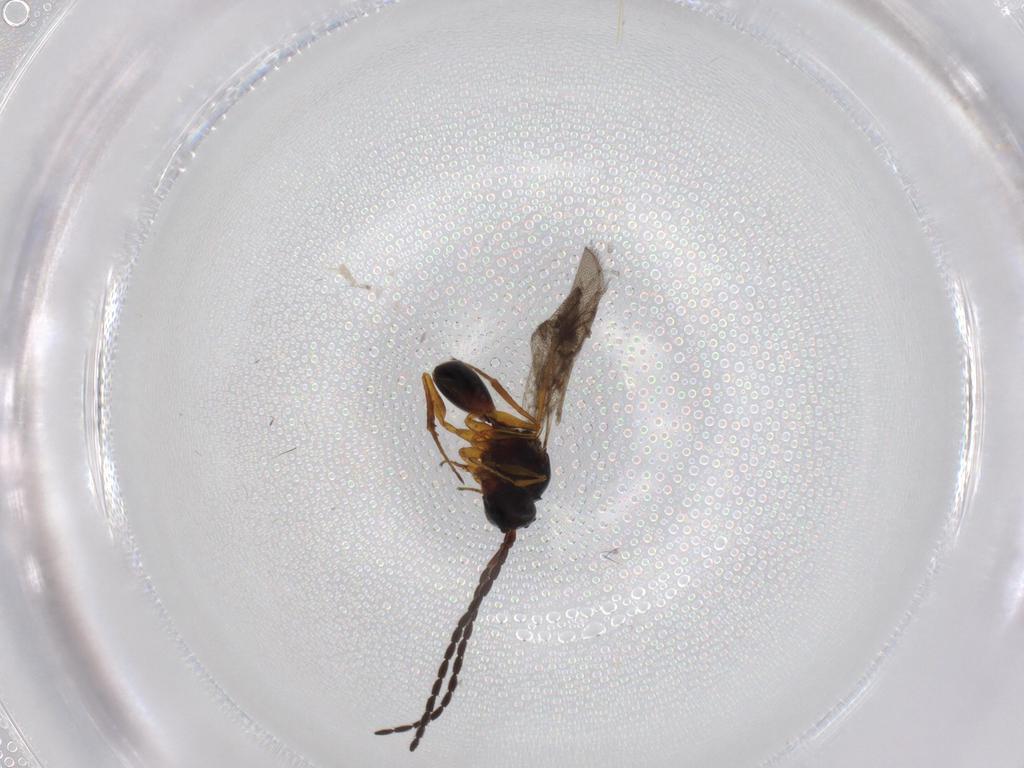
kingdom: Animalia
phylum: Arthropoda
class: Insecta
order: Hymenoptera
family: Figitidae
